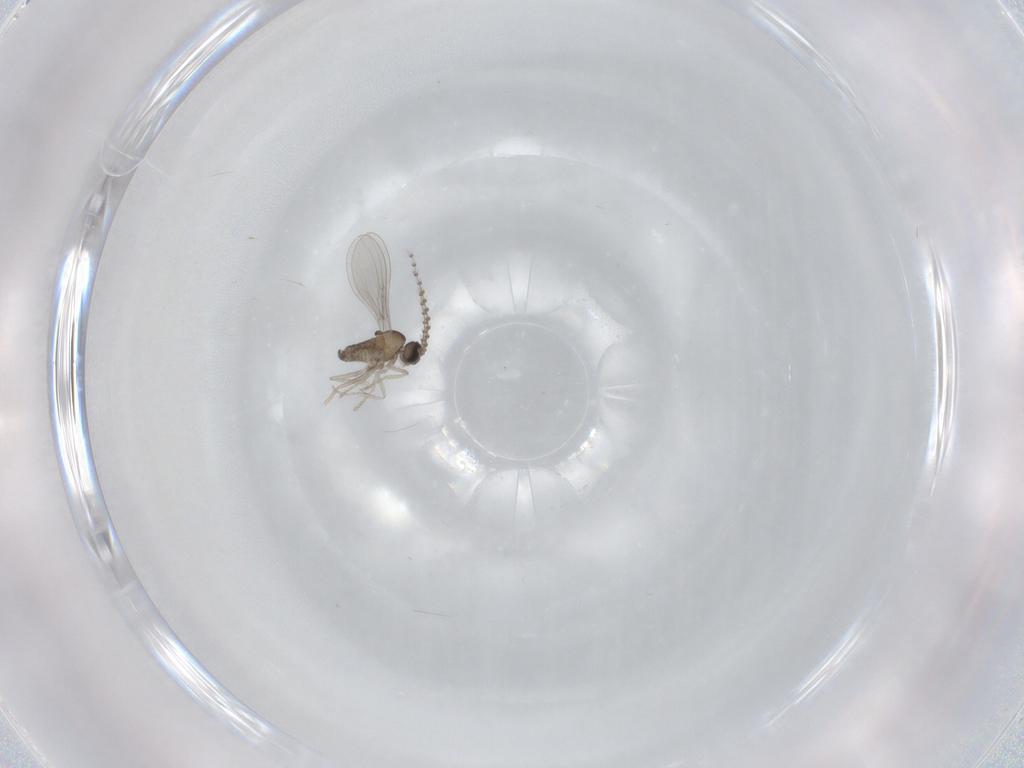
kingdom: Animalia
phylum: Arthropoda
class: Insecta
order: Diptera
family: Cecidomyiidae
